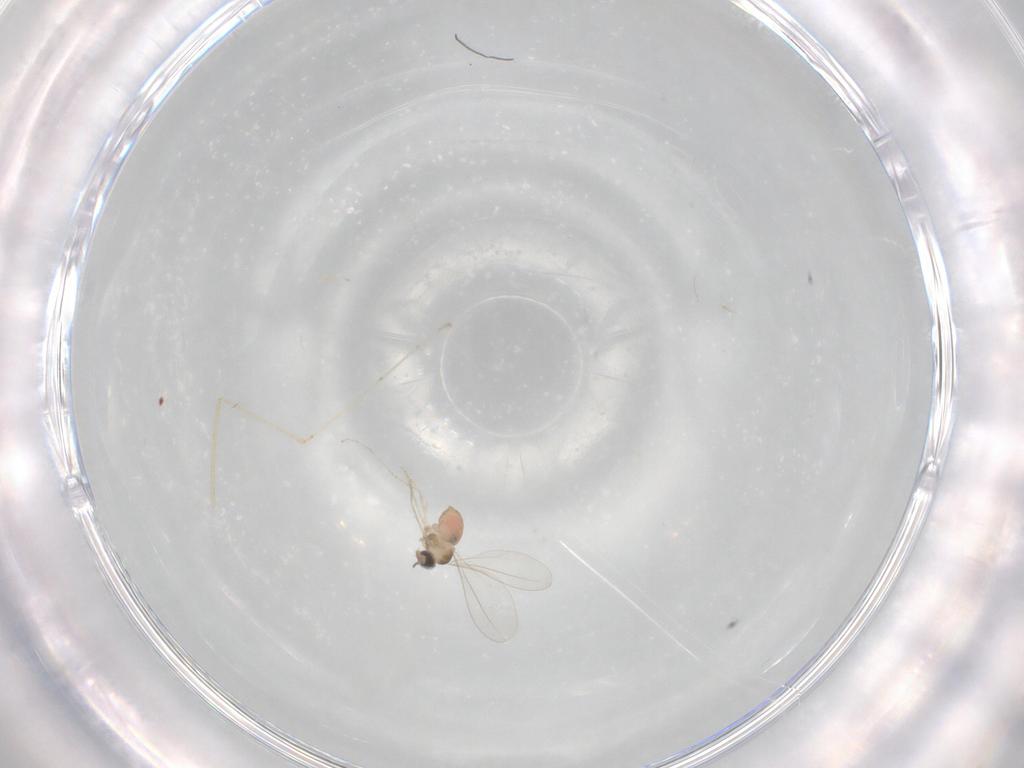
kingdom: Animalia
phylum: Arthropoda
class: Insecta
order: Diptera
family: Cecidomyiidae
